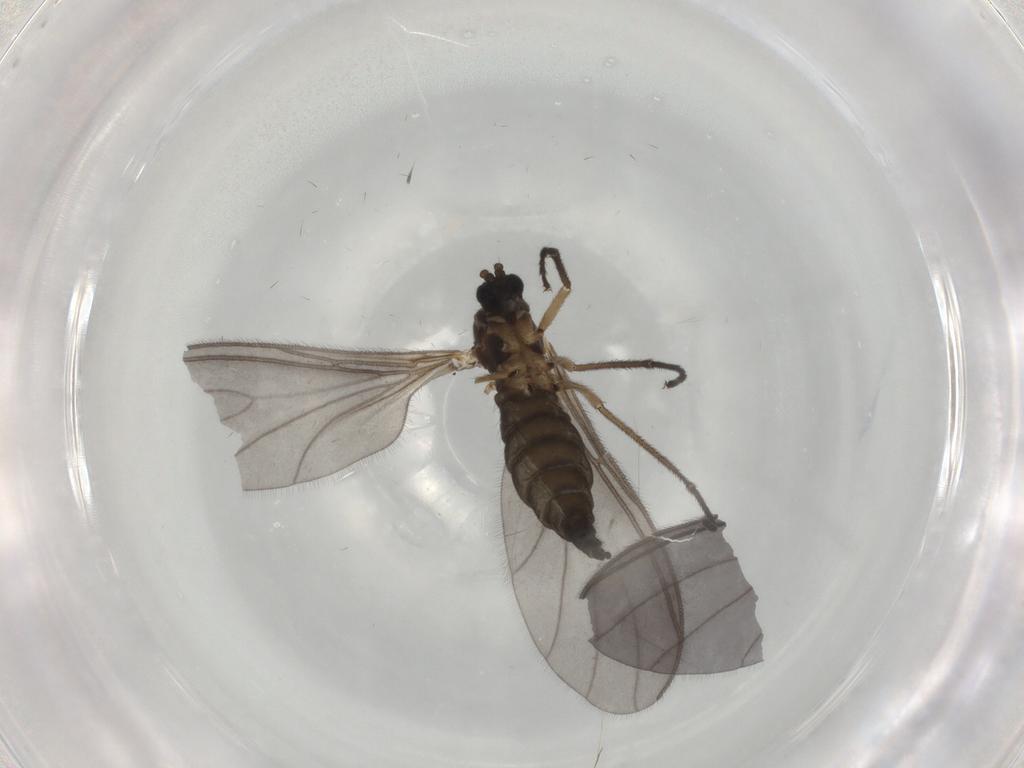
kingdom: Animalia
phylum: Arthropoda
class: Insecta
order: Diptera
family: Sciaridae
